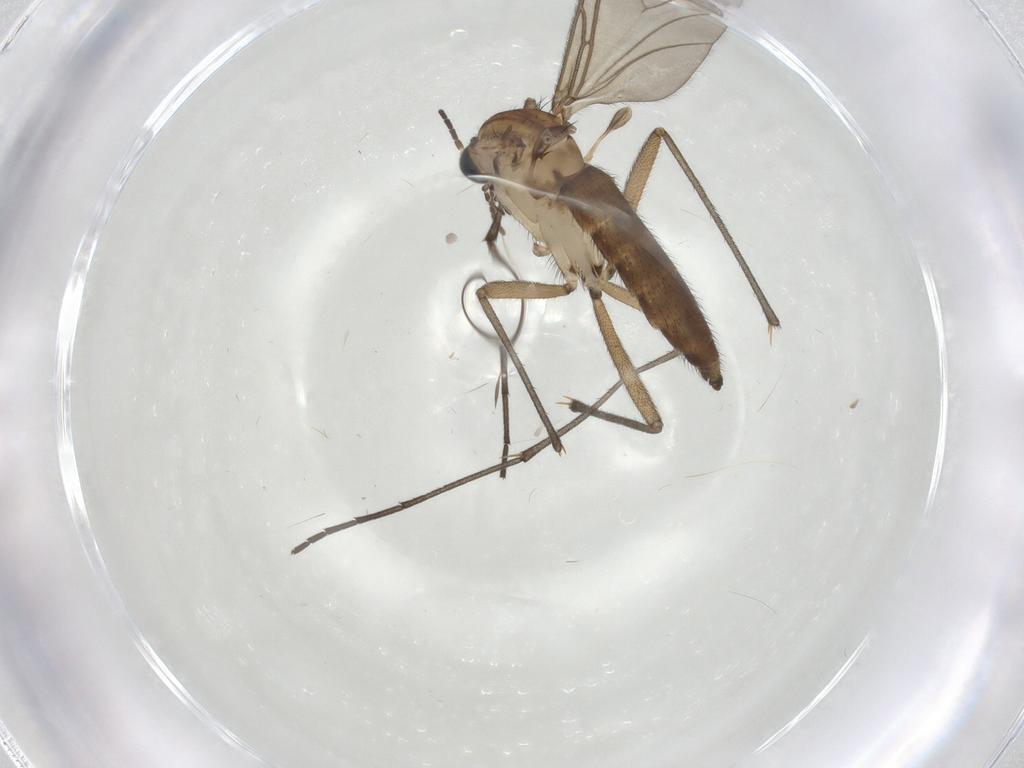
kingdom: Animalia
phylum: Arthropoda
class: Insecta
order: Diptera
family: Sciaridae
